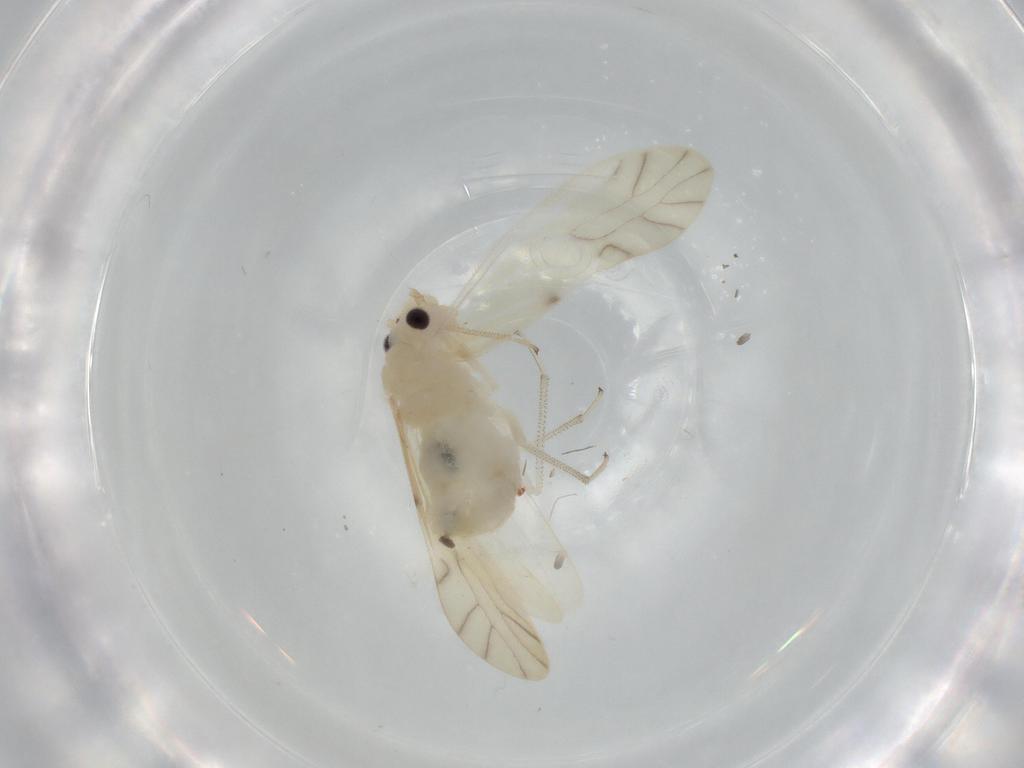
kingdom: Animalia
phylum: Arthropoda
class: Insecta
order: Psocodea
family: Caeciliusidae
